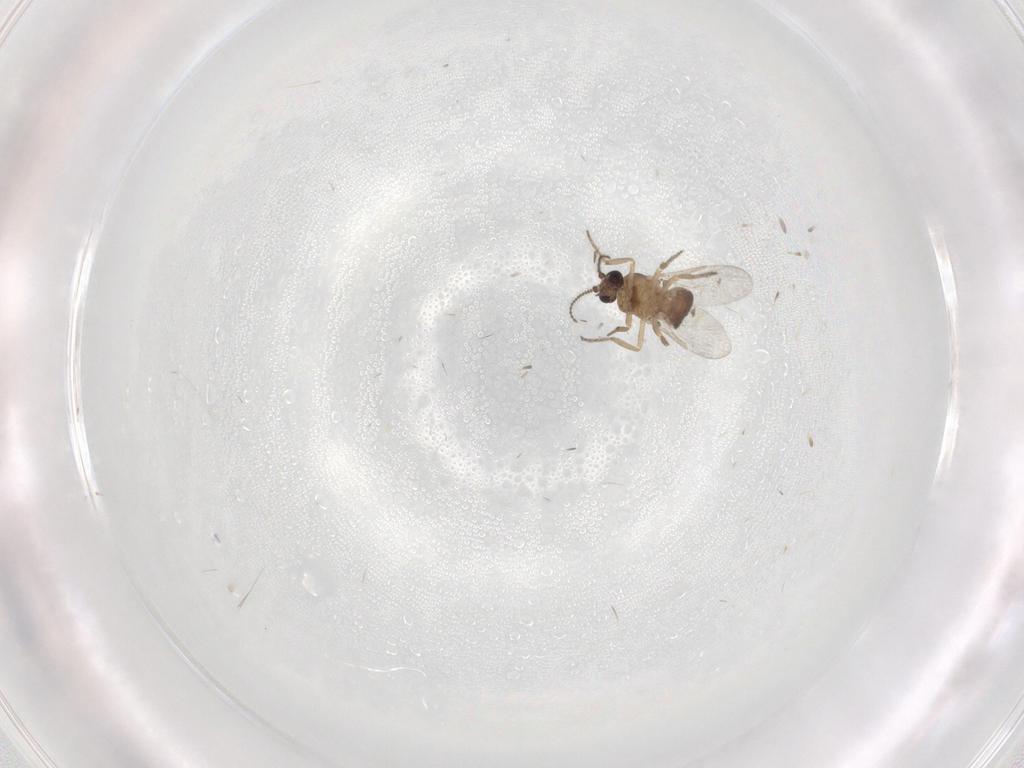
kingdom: Animalia
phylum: Arthropoda
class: Insecta
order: Diptera
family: Ceratopogonidae
